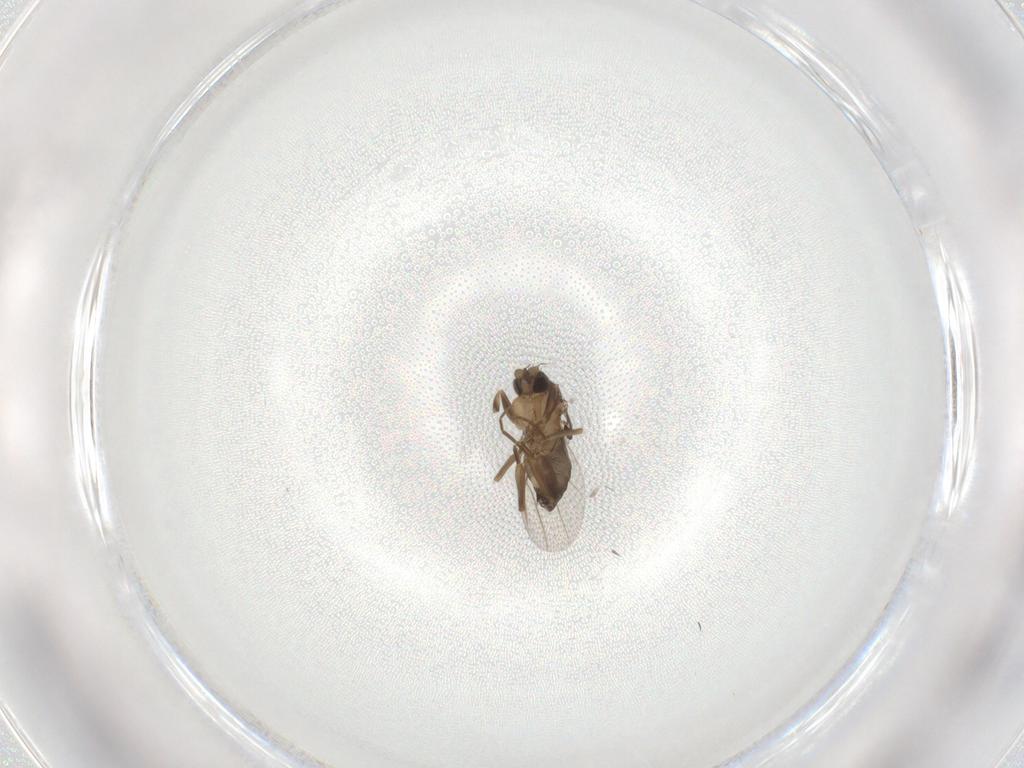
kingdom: Animalia
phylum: Arthropoda
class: Insecta
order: Diptera
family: Chironomidae
